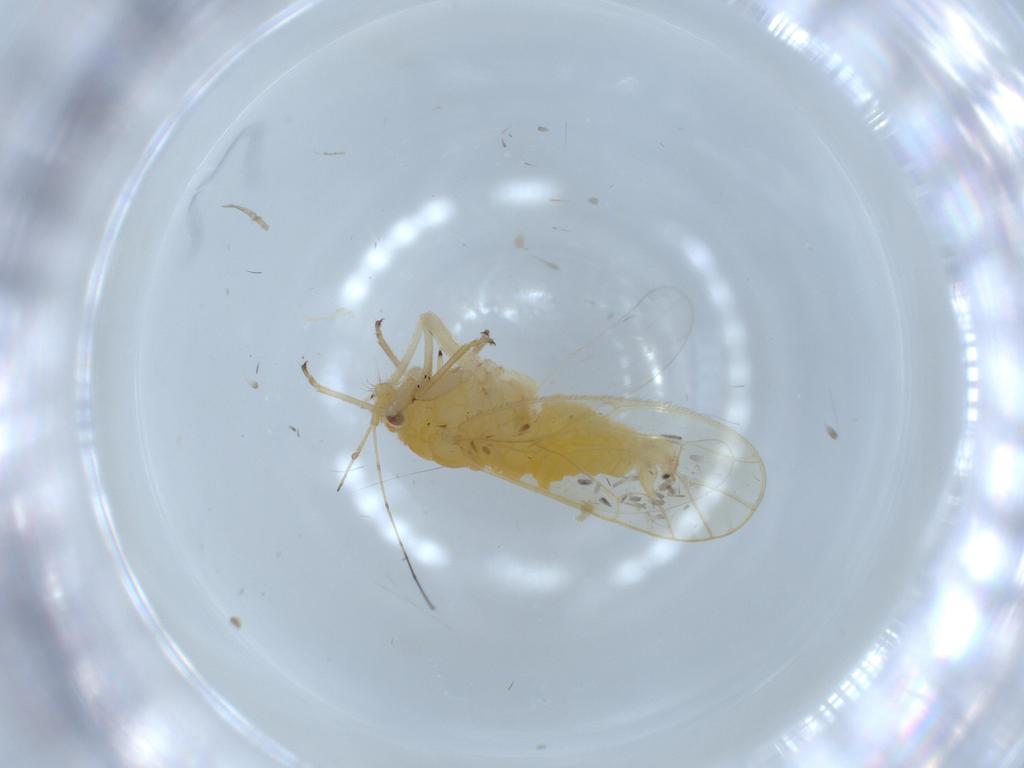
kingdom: Animalia
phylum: Arthropoda
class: Insecta
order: Hemiptera
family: Psyllidae
